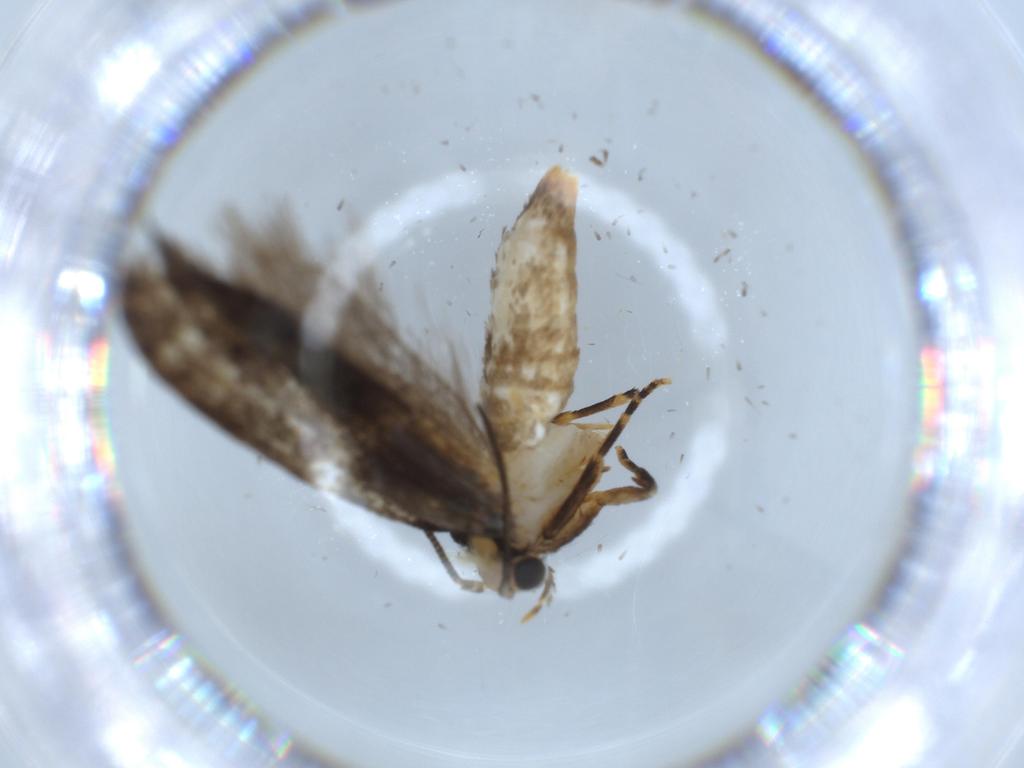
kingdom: Animalia
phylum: Arthropoda
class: Insecta
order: Lepidoptera
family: Tineidae
